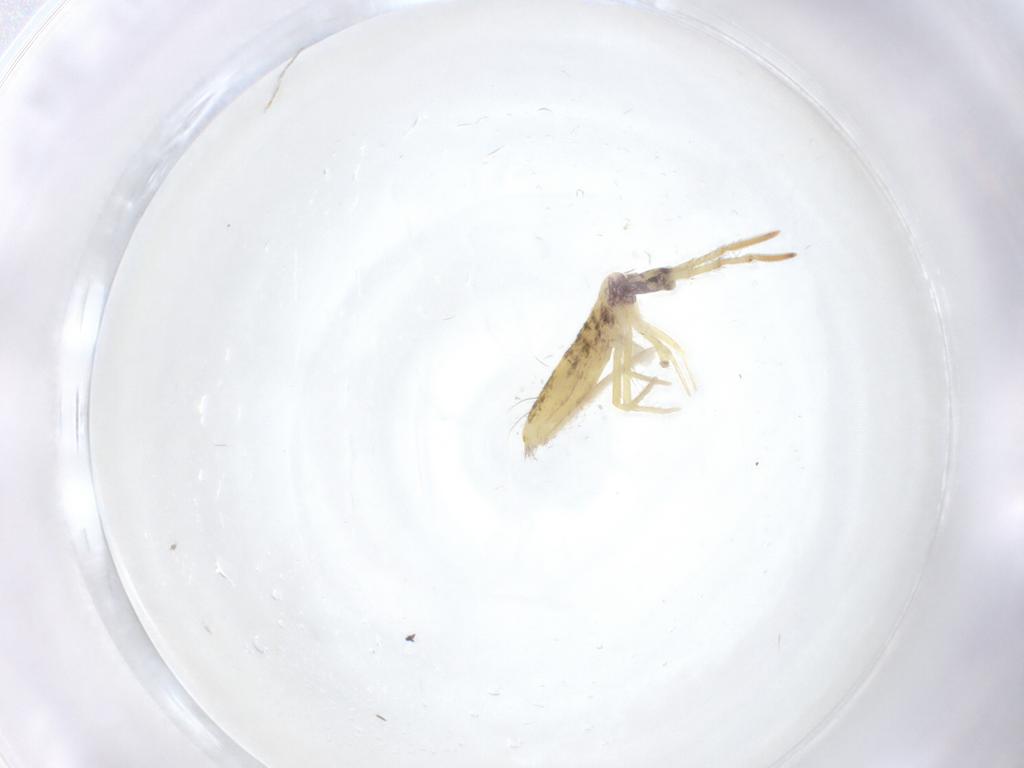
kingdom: Animalia
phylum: Arthropoda
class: Collembola
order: Entomobryomorpha
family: Entomobryidae
